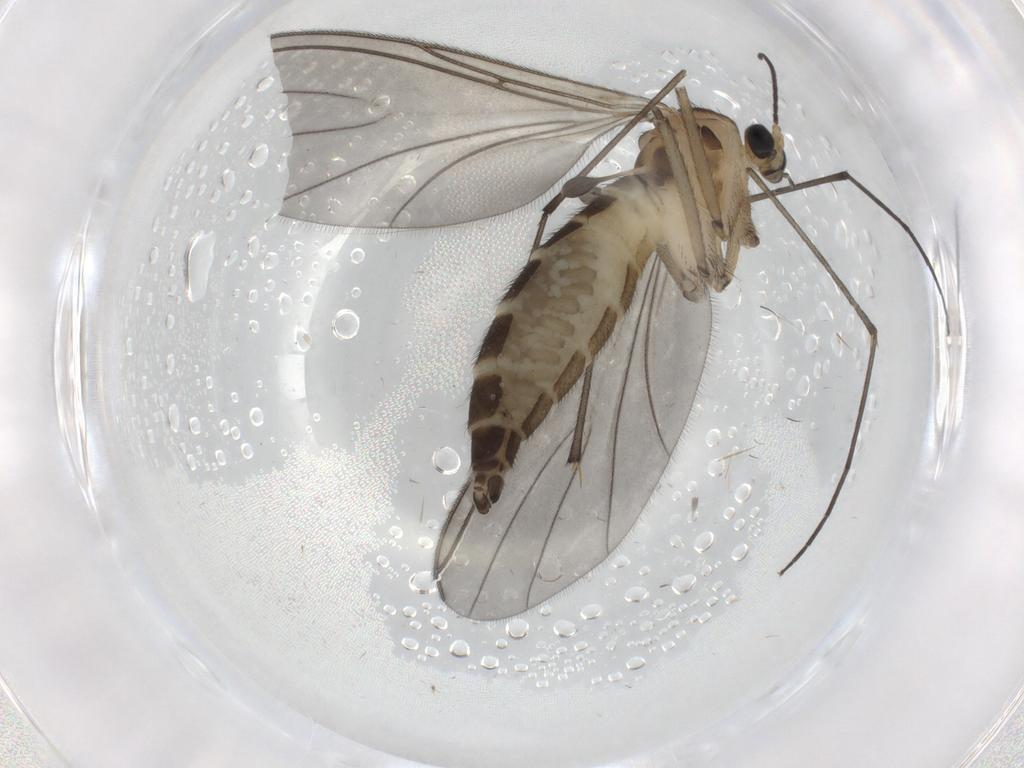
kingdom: Animalia
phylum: Arthropoda
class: Insecta
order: Diptera
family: Sciaridae
